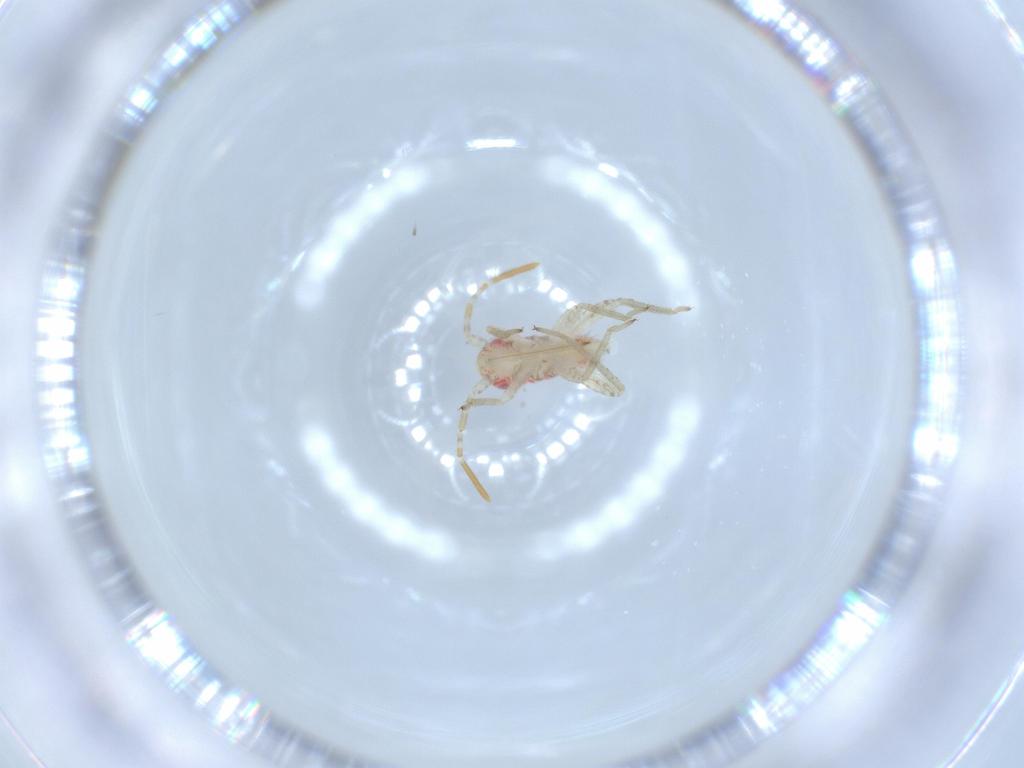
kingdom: Animalia
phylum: Arthropoda
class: Insecta
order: Hemiptera
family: Miridae
